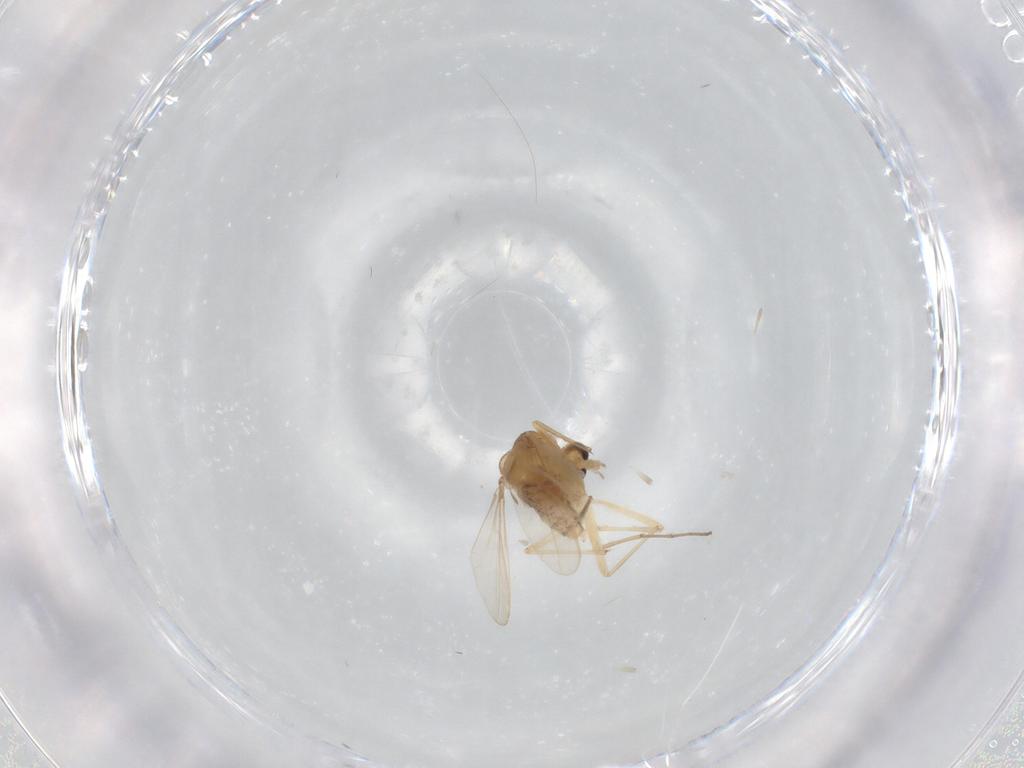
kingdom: Animalia
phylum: Arthropoda
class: Insecta
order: Diptera
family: Chironomidae
